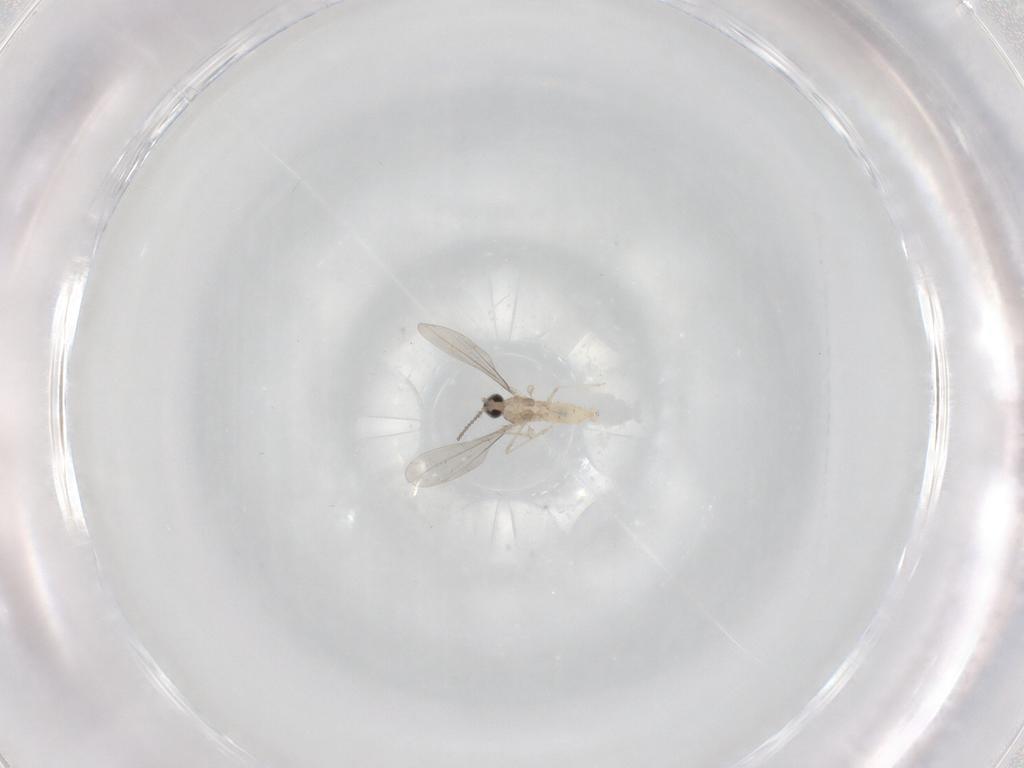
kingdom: Animalia
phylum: Arthropoda
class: Insecta
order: Diptera
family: Cecidomyiidae
